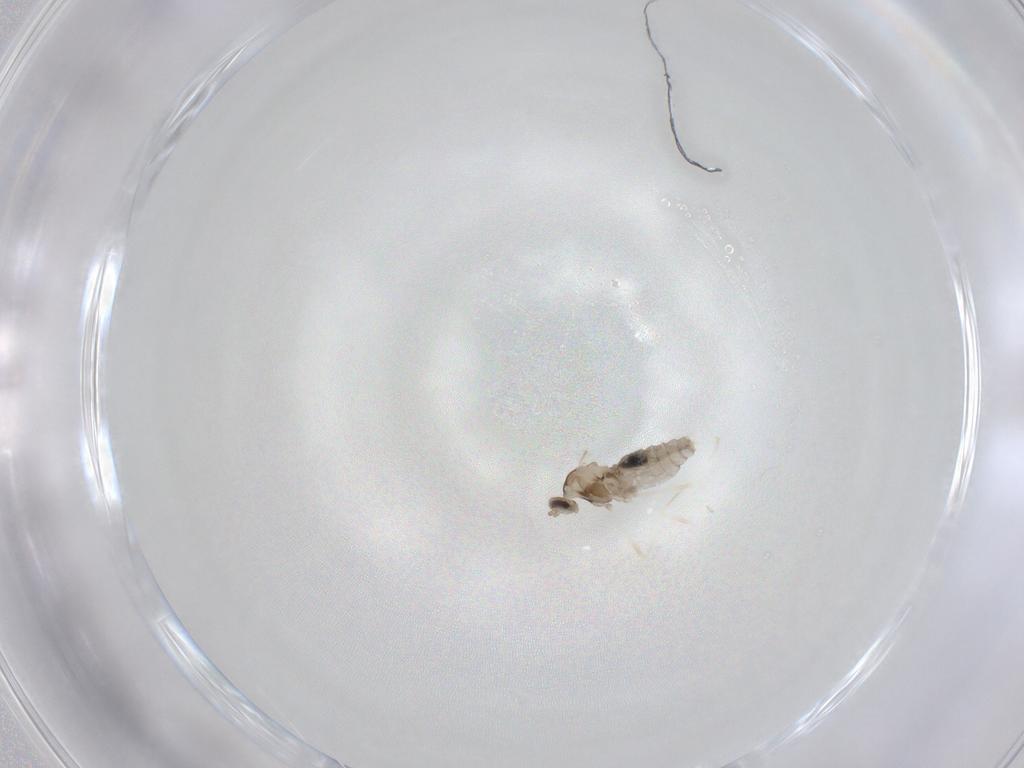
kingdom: Animalia
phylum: Arthropoda
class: Insecta
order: Diptera
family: Cecidomyiidae
